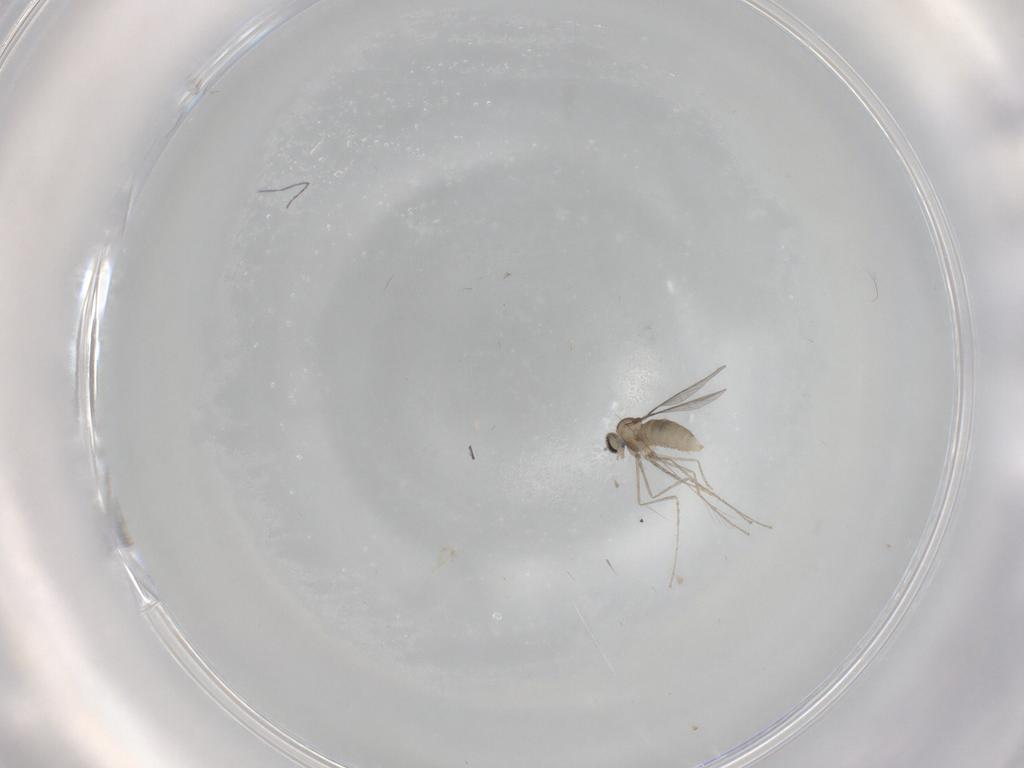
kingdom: Animalia
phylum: Arthropoda
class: Insecta
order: Diptera
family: Cecidomyiidae
